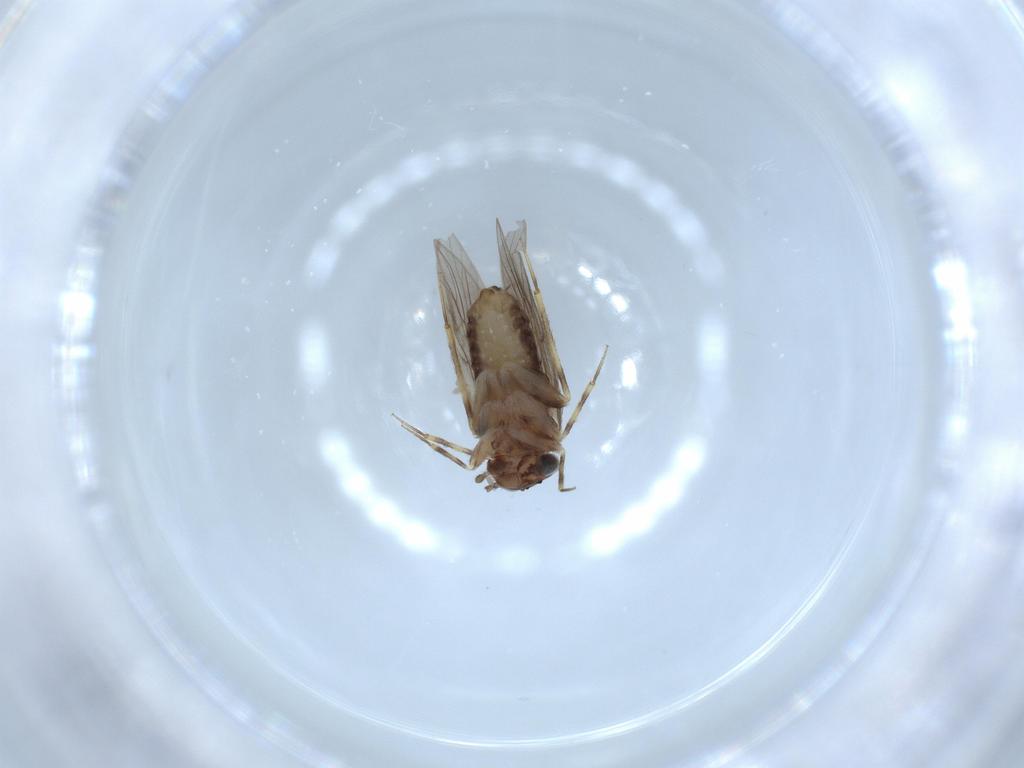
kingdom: Animalia
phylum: Arthropoda
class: Insecta
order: Psocodea
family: Lepidopsocidae
